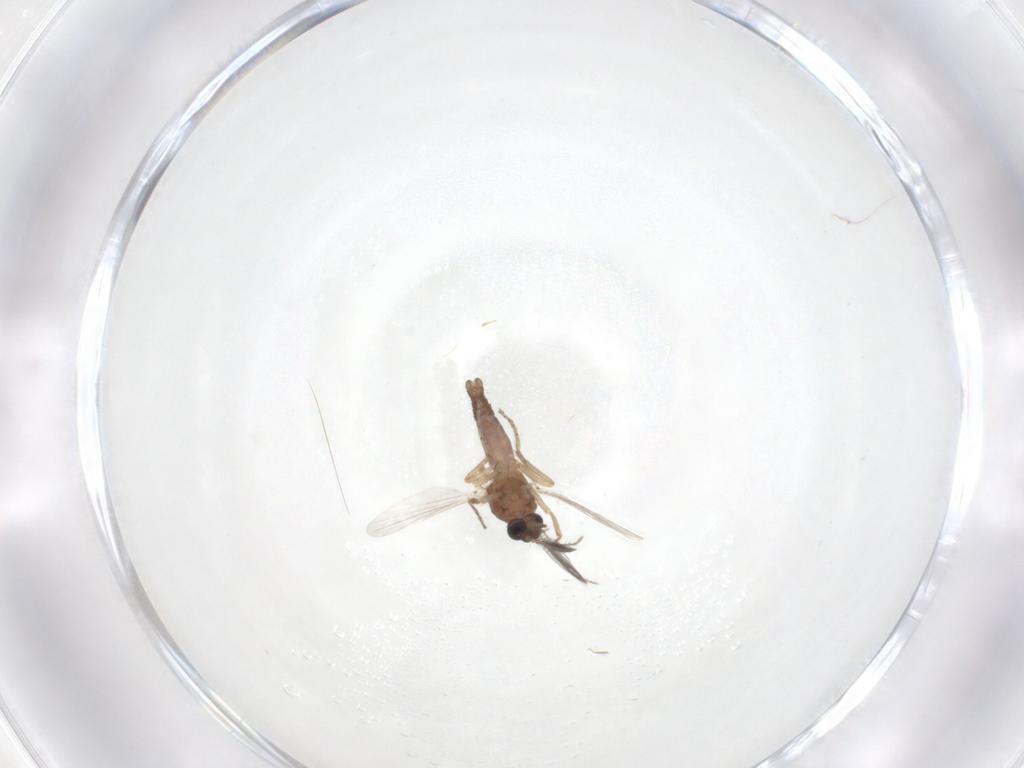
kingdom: Animalia
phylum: Arthropoda
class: Insecta
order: Diptera
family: Ceratopogonidae
